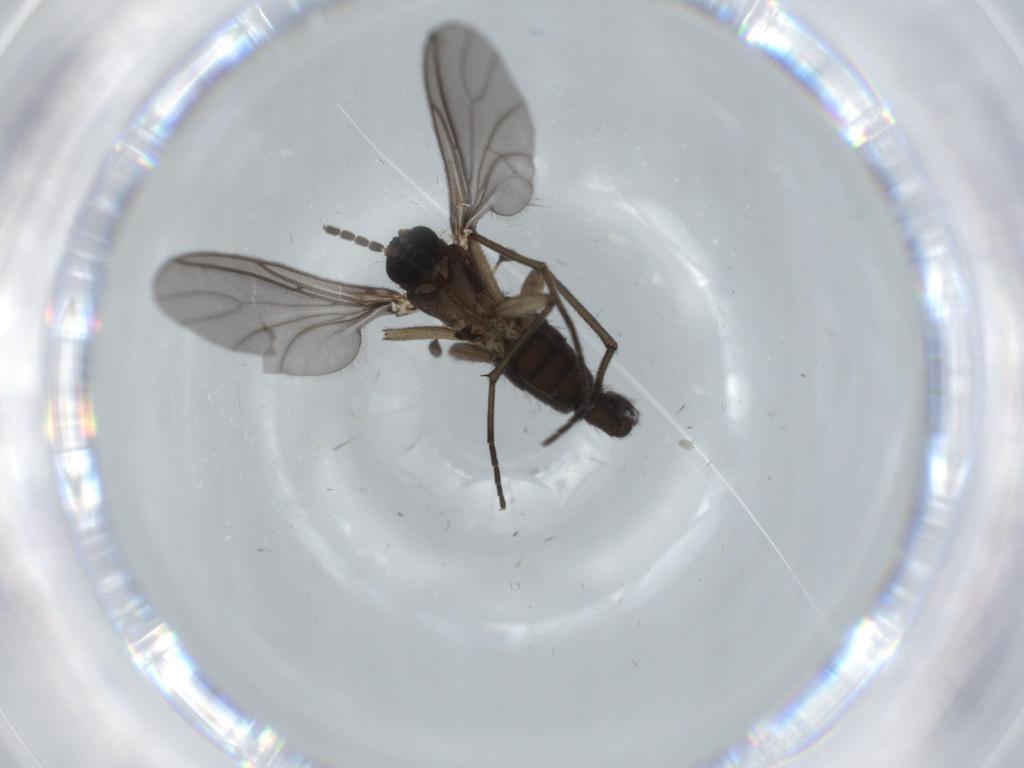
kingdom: Animalia
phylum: Arthropoda
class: Insecta
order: Diptera
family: Sciaridae
